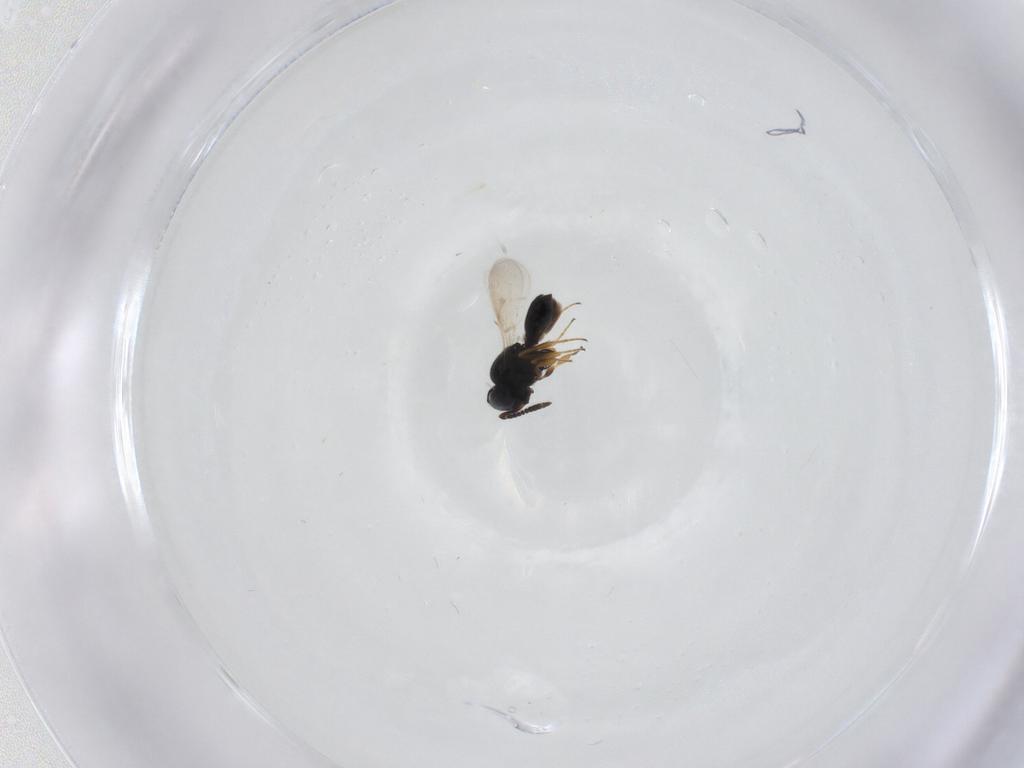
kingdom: Animalia
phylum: Arthropoda
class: Insecta
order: Hymenoptera
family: Scelionidae
